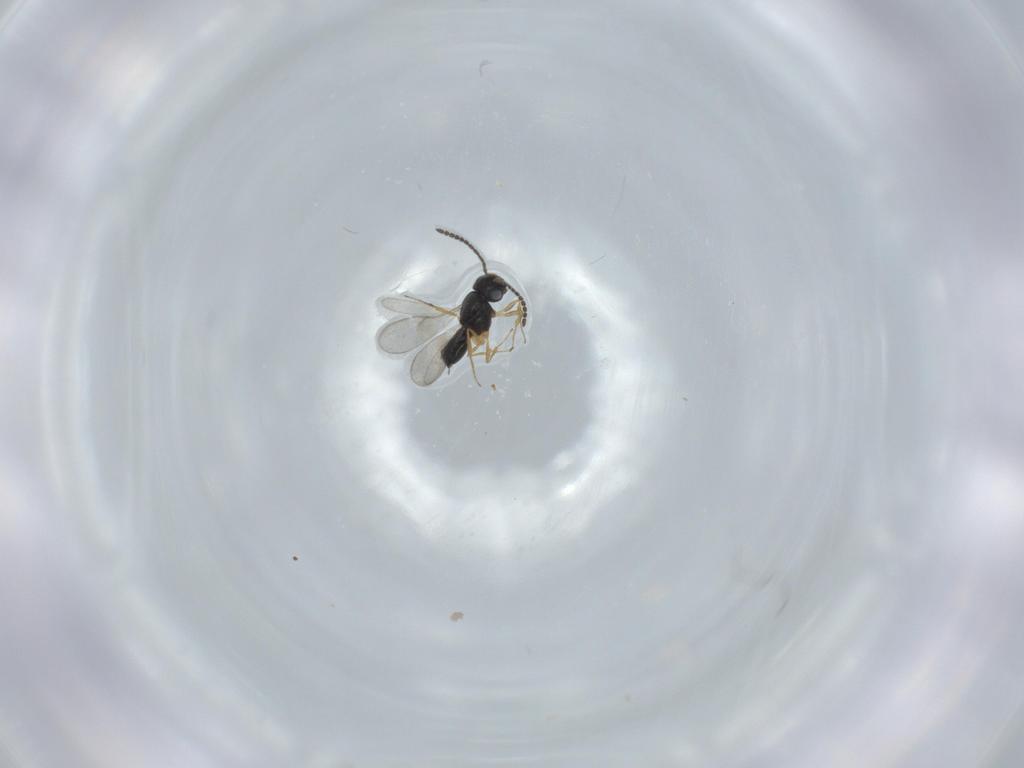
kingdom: Animalia
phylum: Arthropoda
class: Insecta
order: Hymenoptera
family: Scelionidae
